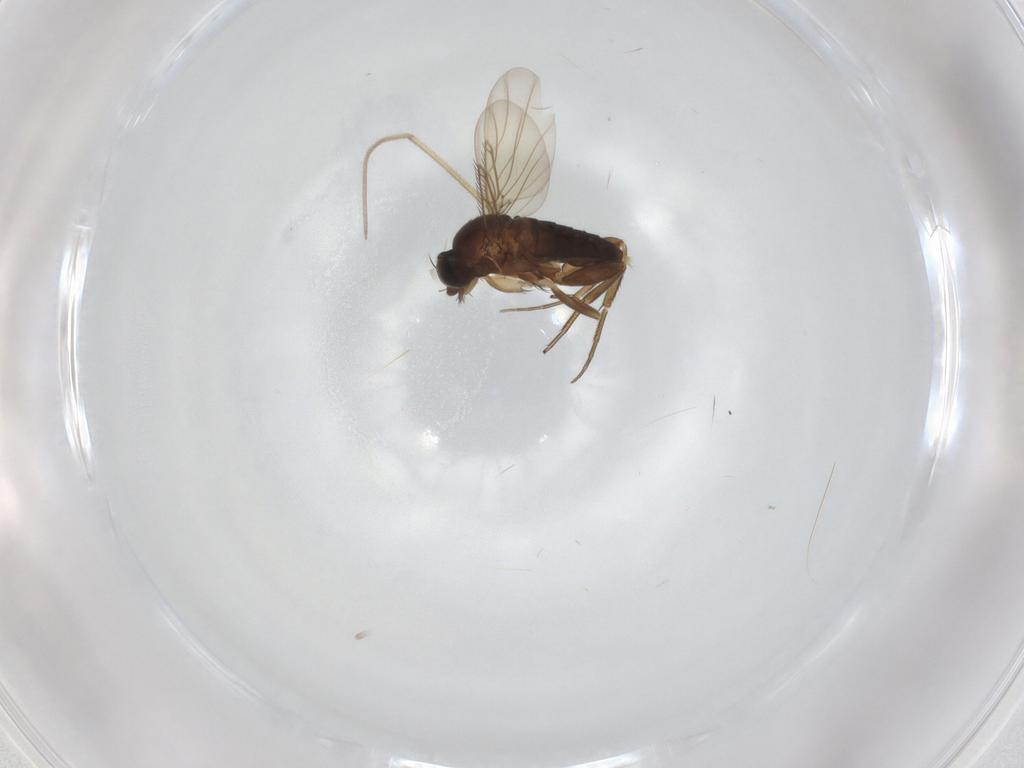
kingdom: Animalia
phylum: Arthropoda
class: Insecta
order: Diptera
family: Phoridae
